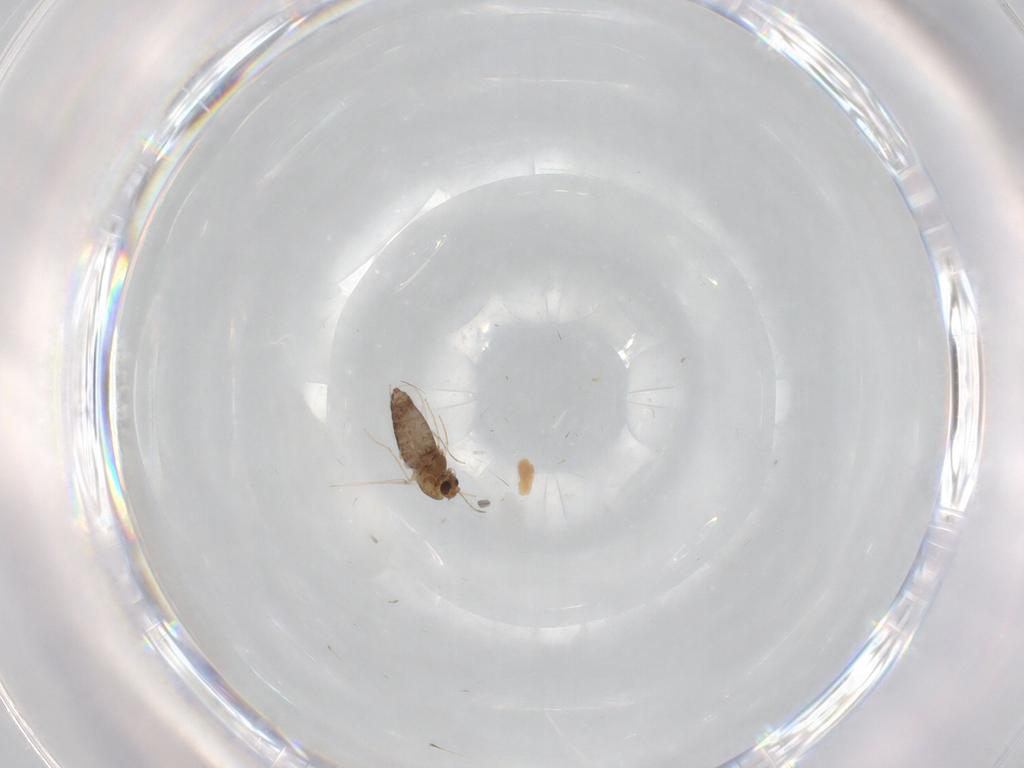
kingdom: Animalia
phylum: Arthropoda
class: Insecta
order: Diptera
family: Chironomidae
